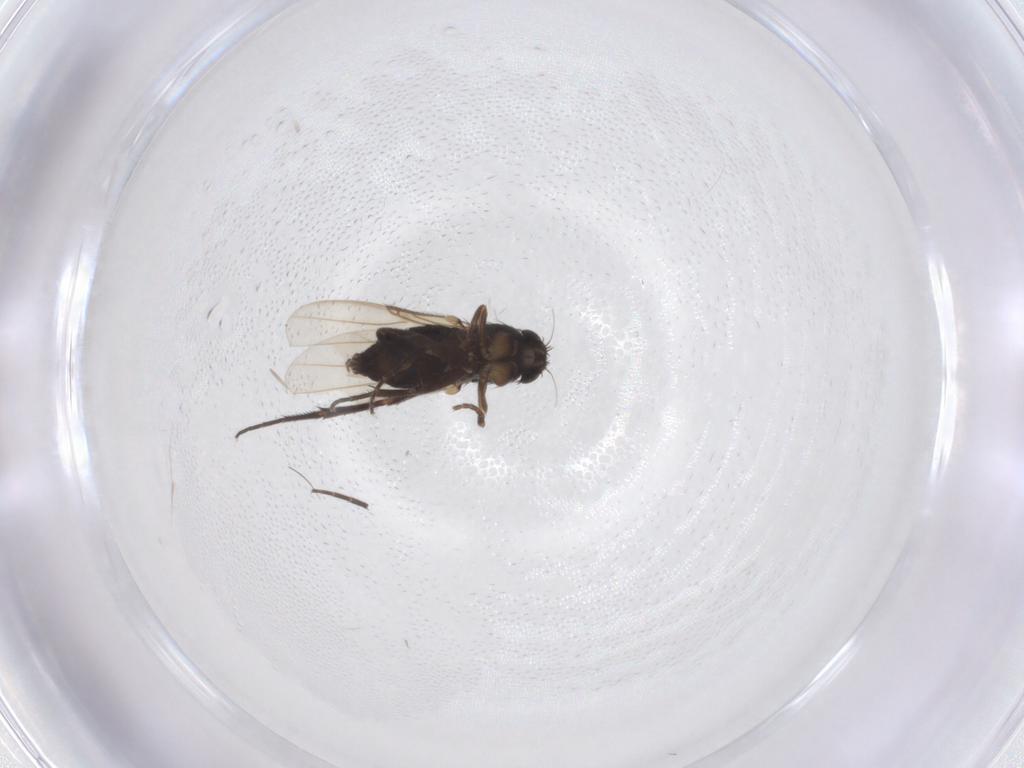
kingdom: Animalia
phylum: Arthropoda
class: Insecta
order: Diptera
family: Phoridae
